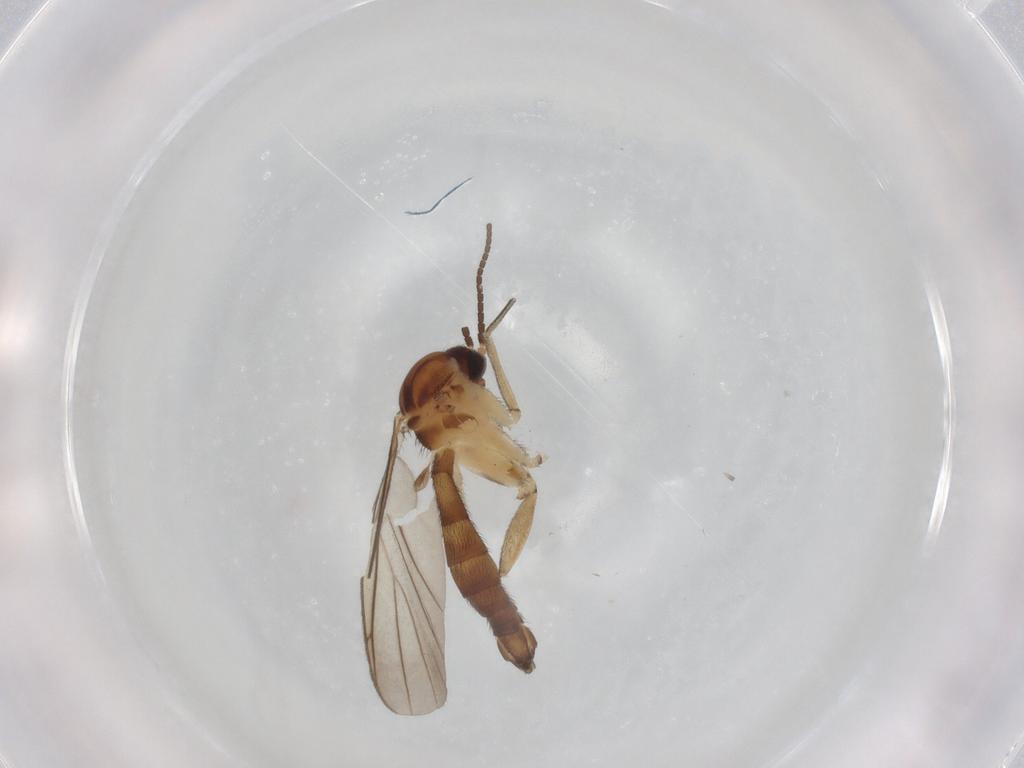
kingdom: Animalia
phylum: Arthropoda
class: Insecta
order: Diptera
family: Keroplatidae
